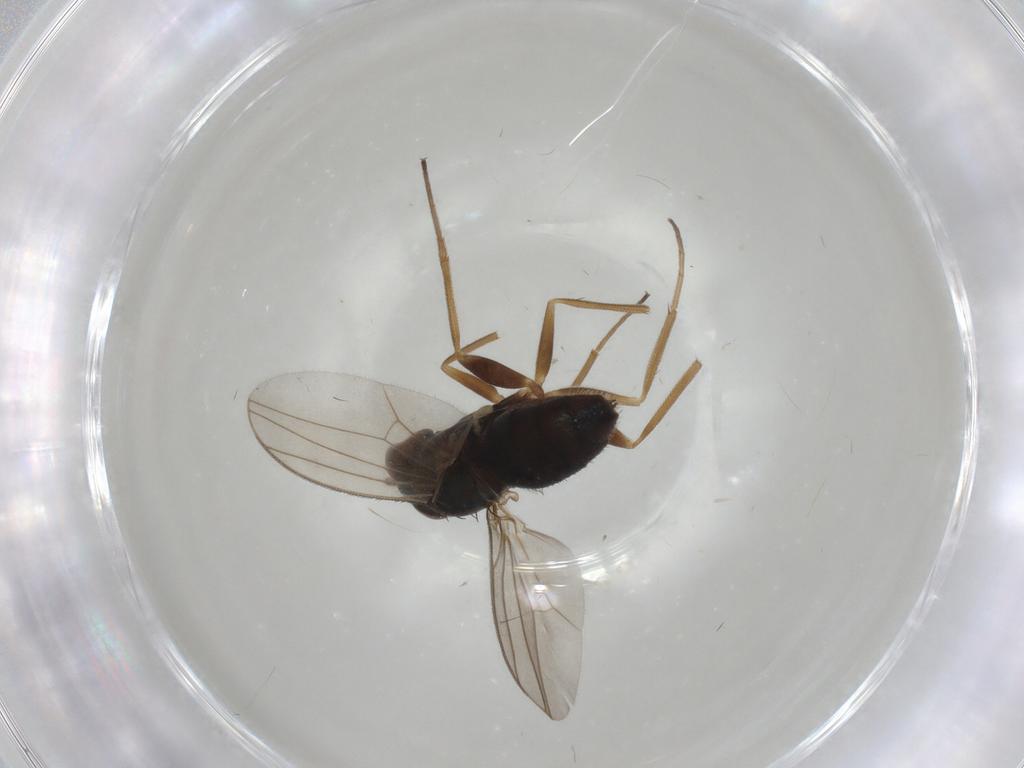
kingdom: Animalia
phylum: Arthropoda
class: Insecta
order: Diptera
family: Dolichopodidae
